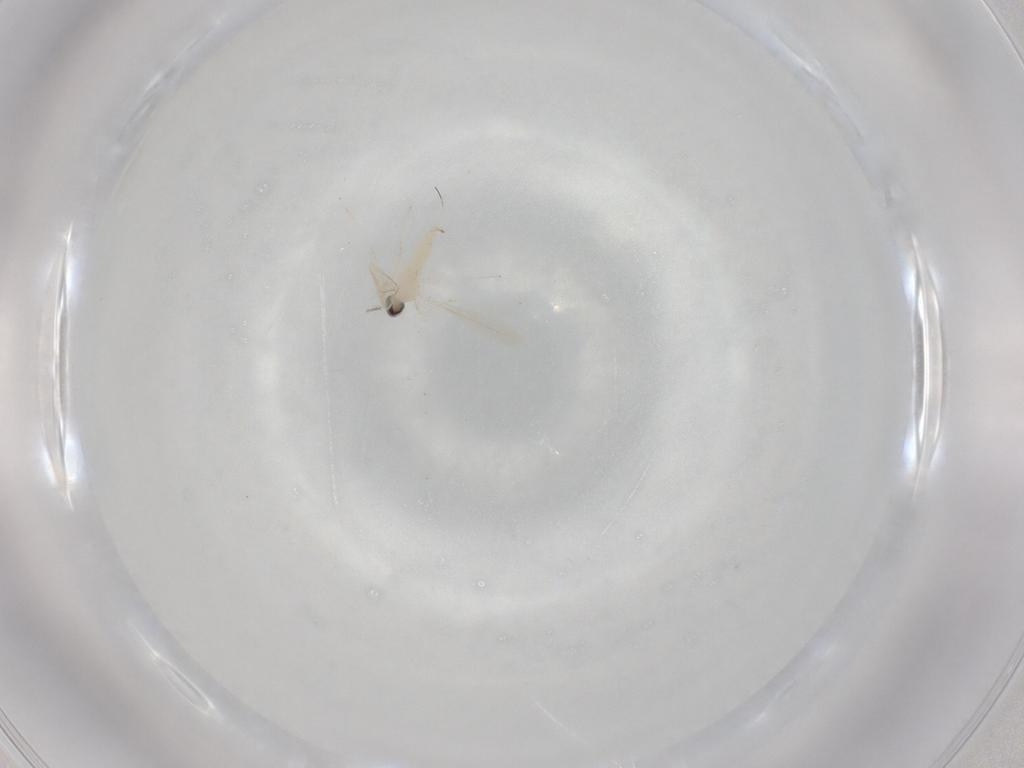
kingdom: Animalia
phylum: Arthropoda
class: Insecta
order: Diptera
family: Cecidomyiidae
